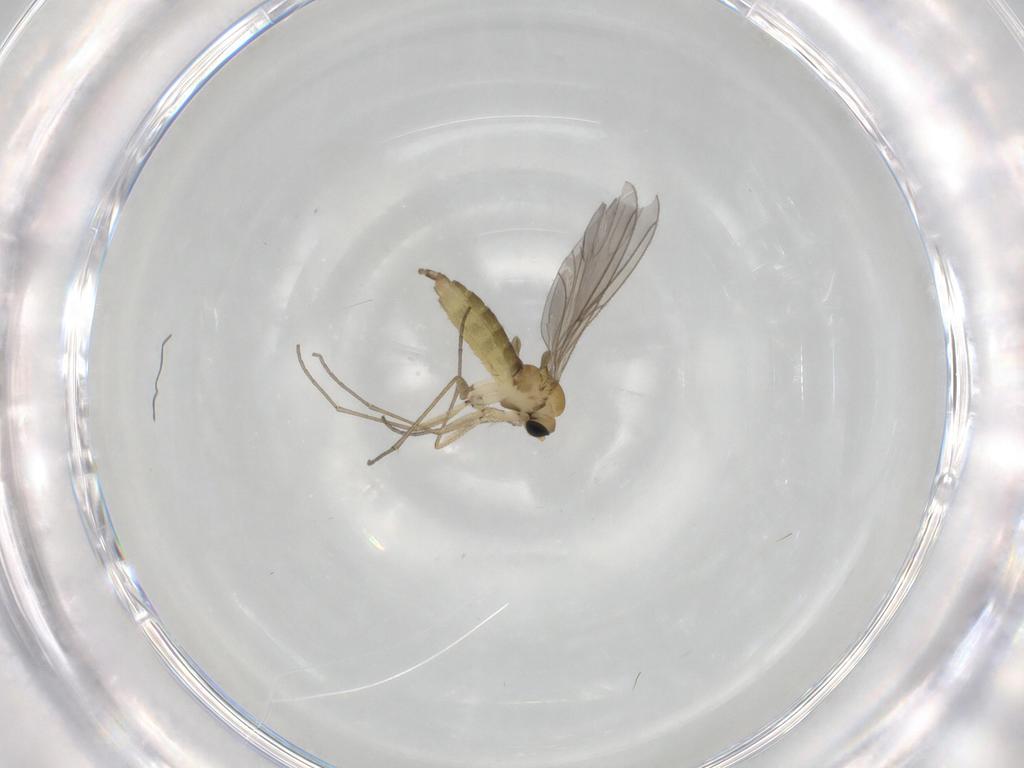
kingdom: Animalia
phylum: Arthropoda
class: Insecta
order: Diptera
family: Sciaridae
